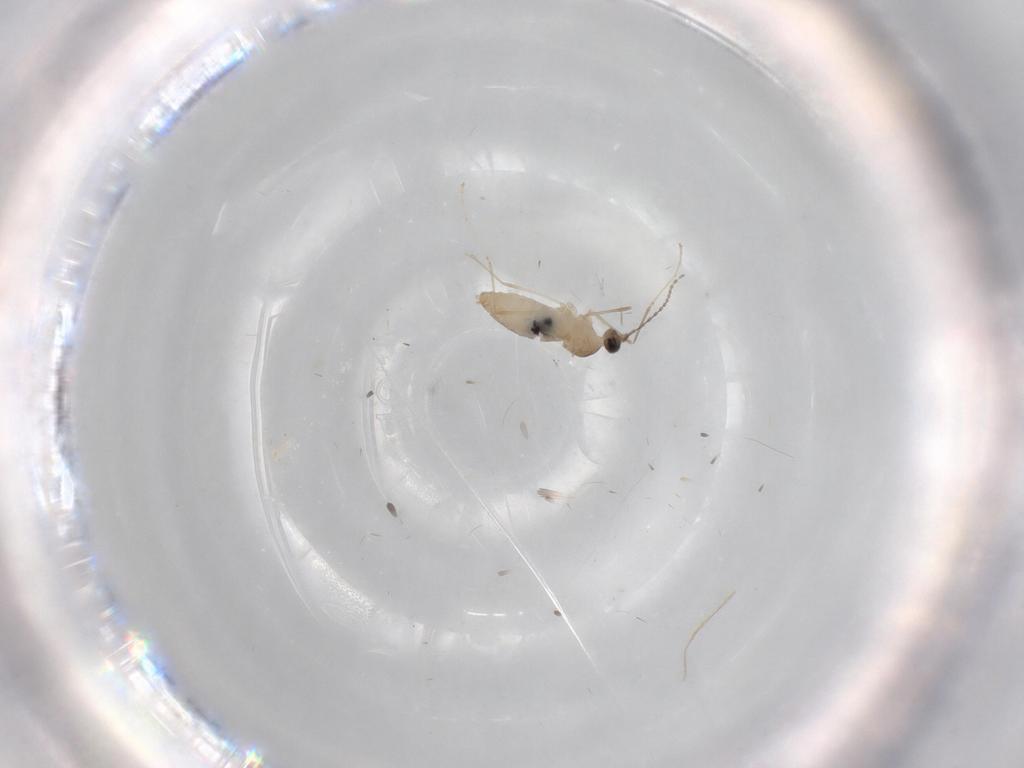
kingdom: Animalia
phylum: Arthropoda
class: Insecta
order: Diptera
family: Cecidomyiidae
